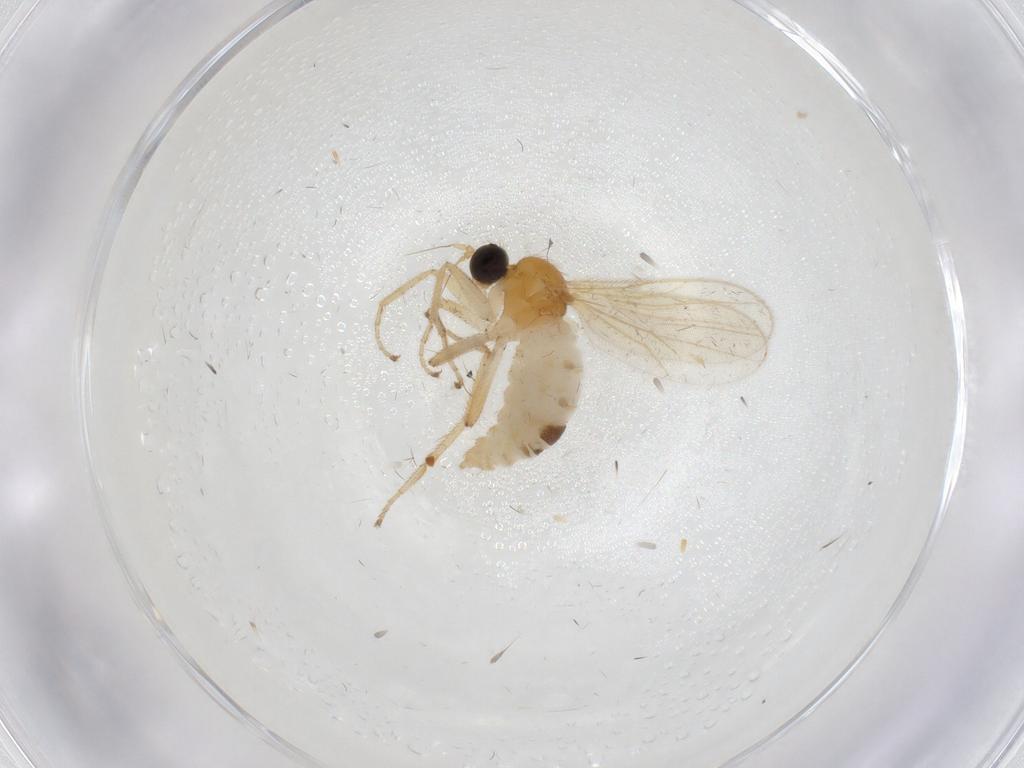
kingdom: Animalia
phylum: Arthropoda
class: Insecta
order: Diptera
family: Hybotidae
